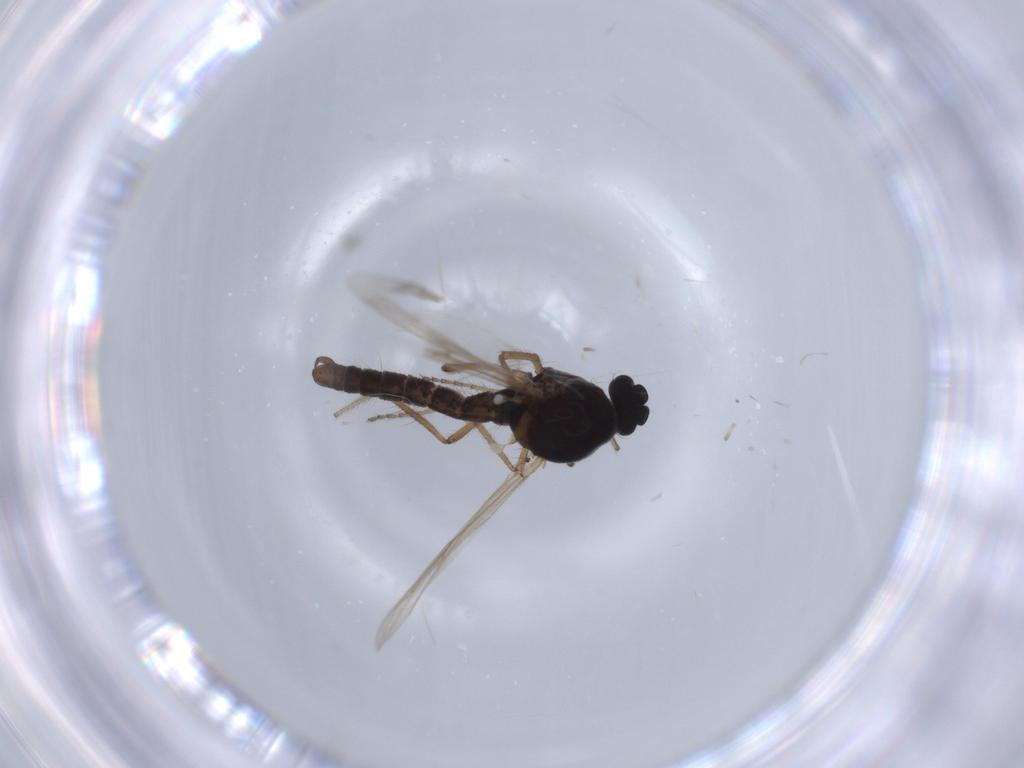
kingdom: Animalia
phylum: Arthropoda
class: Insecta
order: Diptera
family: Ceratopogonidae
